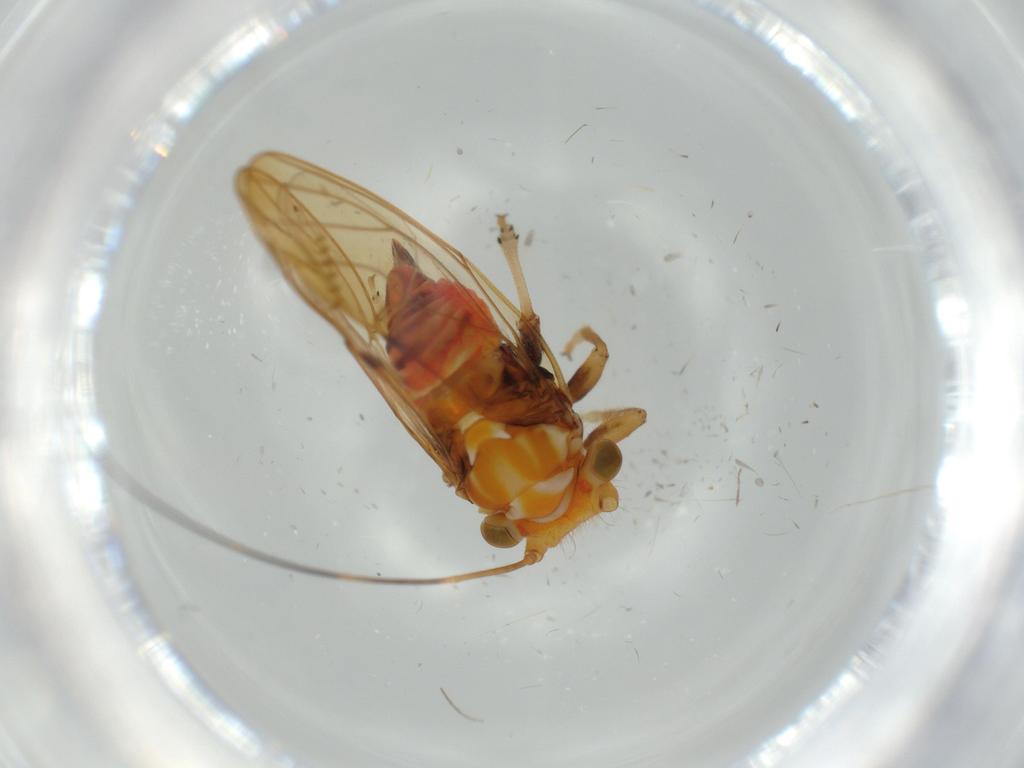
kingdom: Animalia
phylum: Arthropoda
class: Insecta
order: Hemiptera
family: Psyllidae
